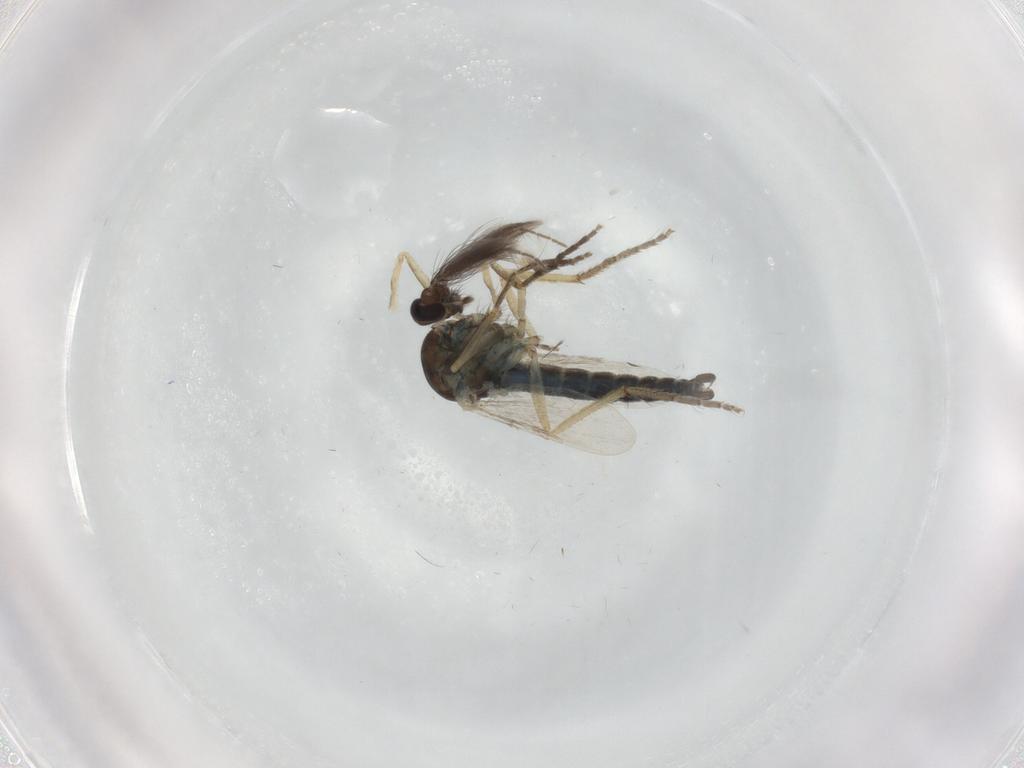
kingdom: Animalia
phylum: Arthropoda
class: Insecta
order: Diptera
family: Ceratopogonidae
